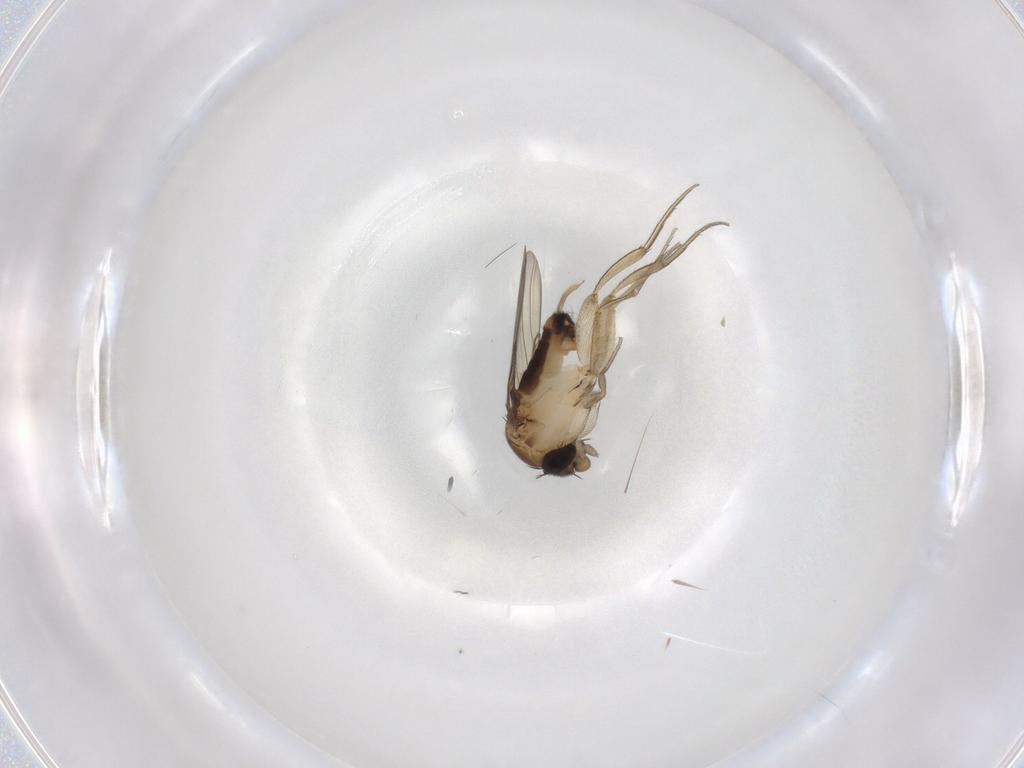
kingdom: Animalia
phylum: Arthropoda
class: Insecta
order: Diptera
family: Phoridae
